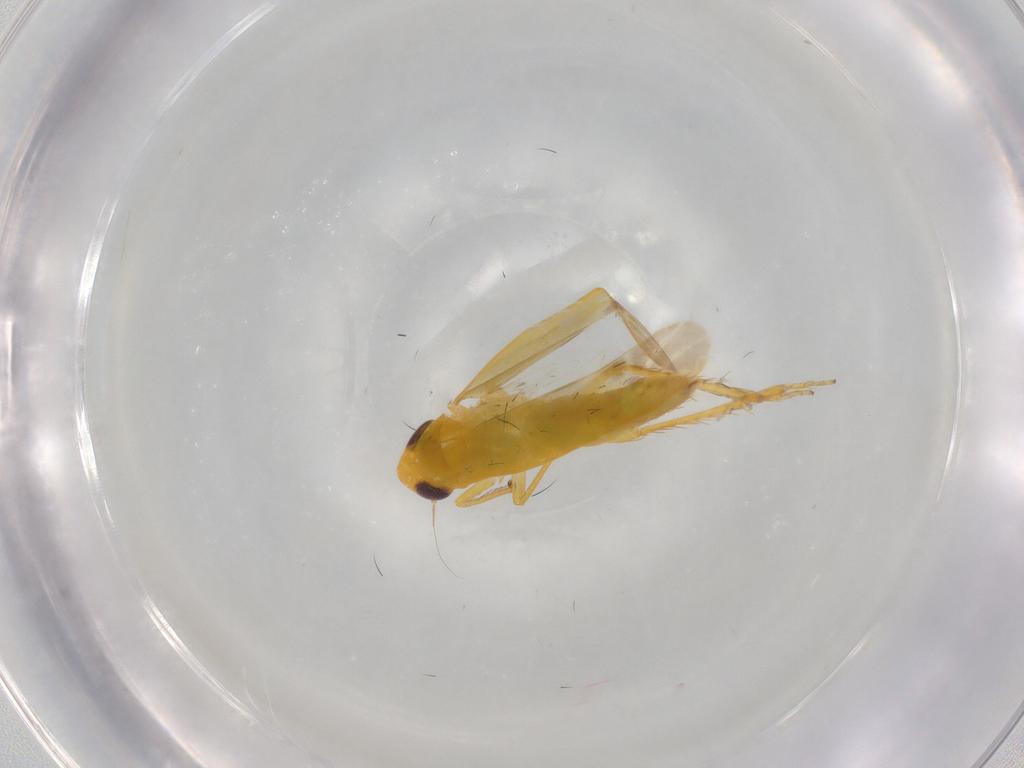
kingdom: Animalia
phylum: Arthropoda
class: Insecta
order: Hemiptera
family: Cicadellidae
